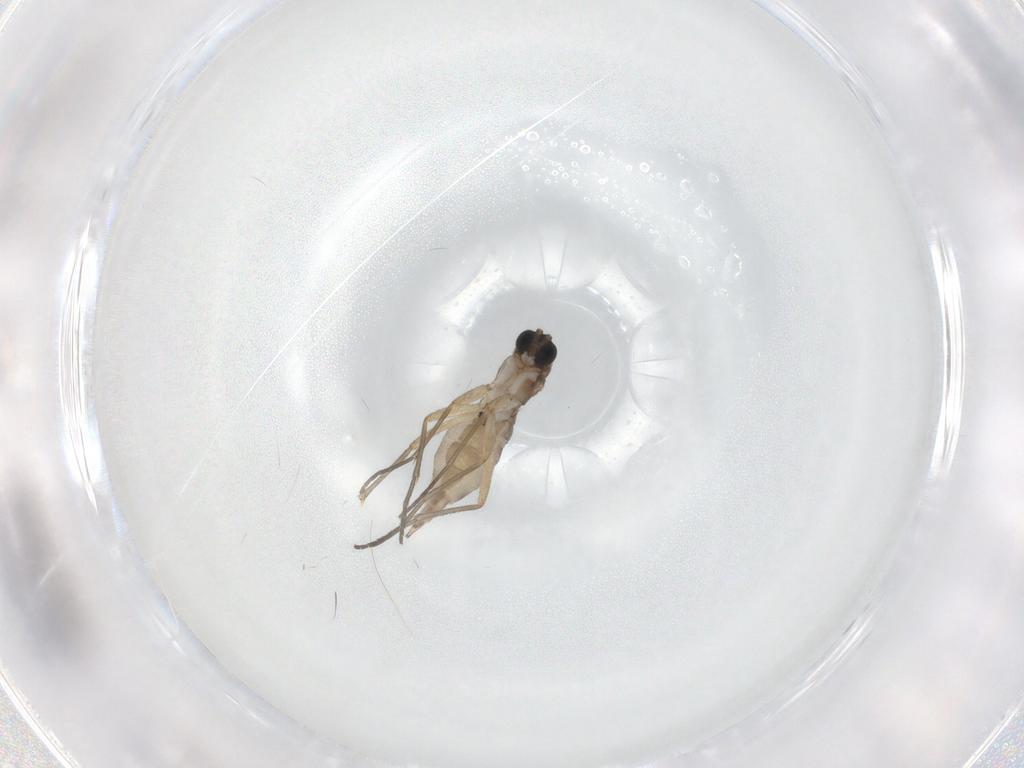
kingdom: Animalia
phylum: Arthropoda
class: Insecta
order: Diptera
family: Sciaridae
